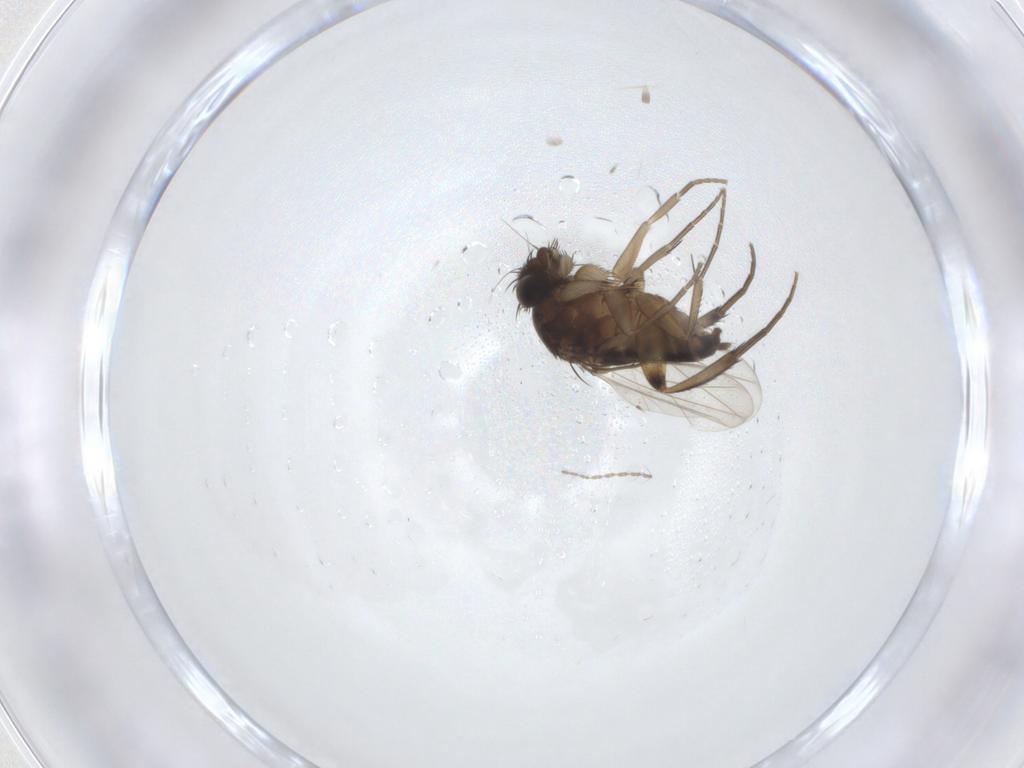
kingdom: Animalia
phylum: Arthropoda
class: Insecta
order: Diptera
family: Phoridae
